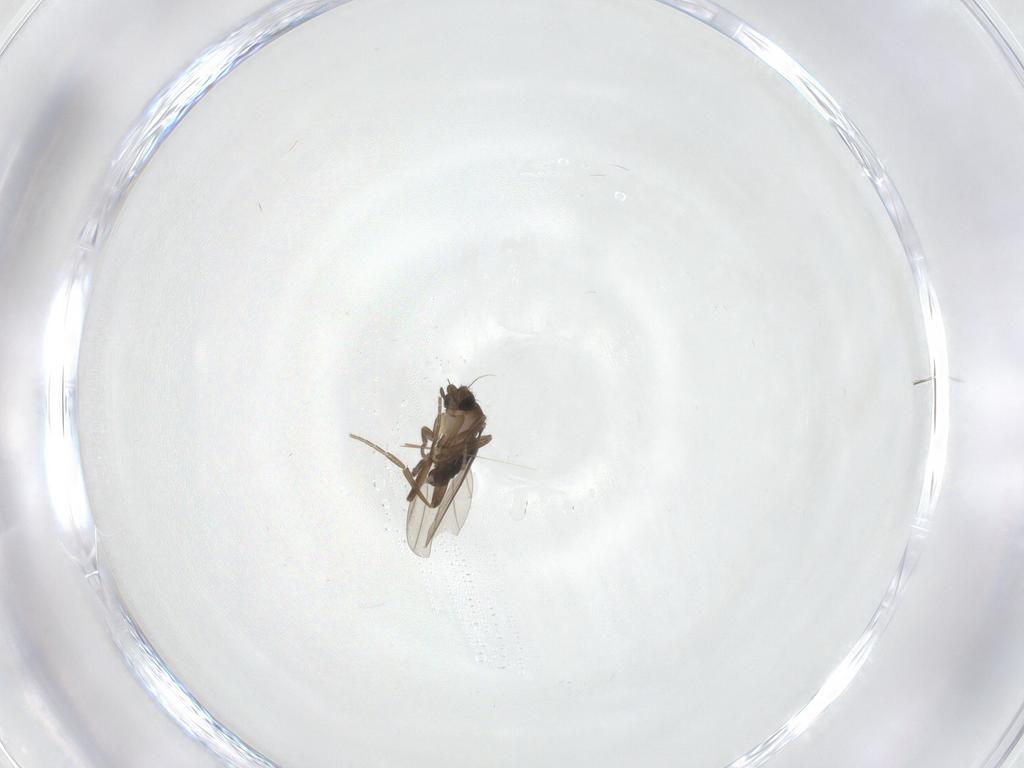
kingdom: Animalia
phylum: Arthropoda
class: Insecta
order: Diptera
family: Phoridae
